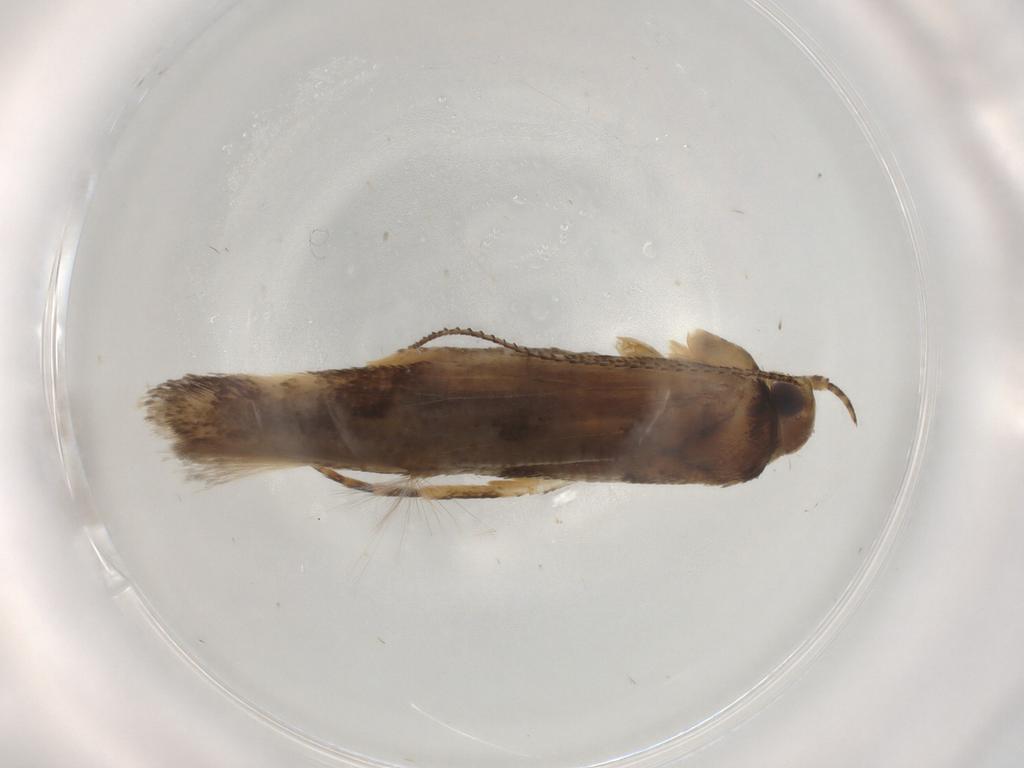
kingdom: Animalia
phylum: Arthropoda
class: Insecta
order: Lepidoptera
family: Gelechiidae
